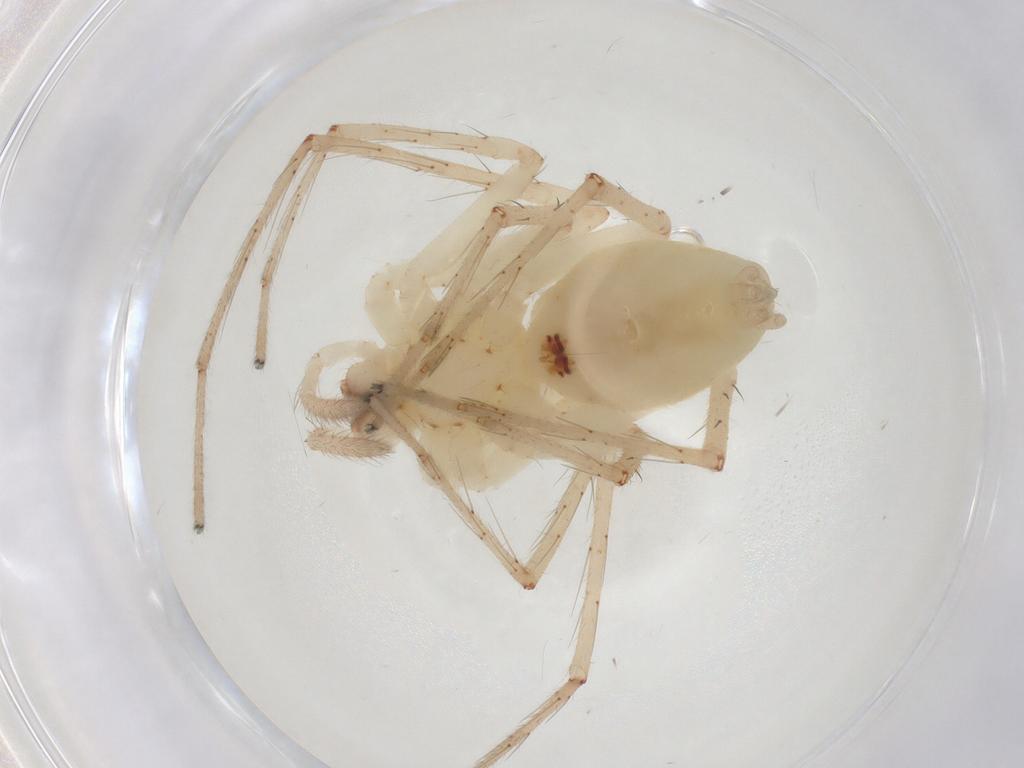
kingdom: Animalia
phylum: Arthropoda
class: Arachnida
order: Araneae
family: Anyphaenidae
